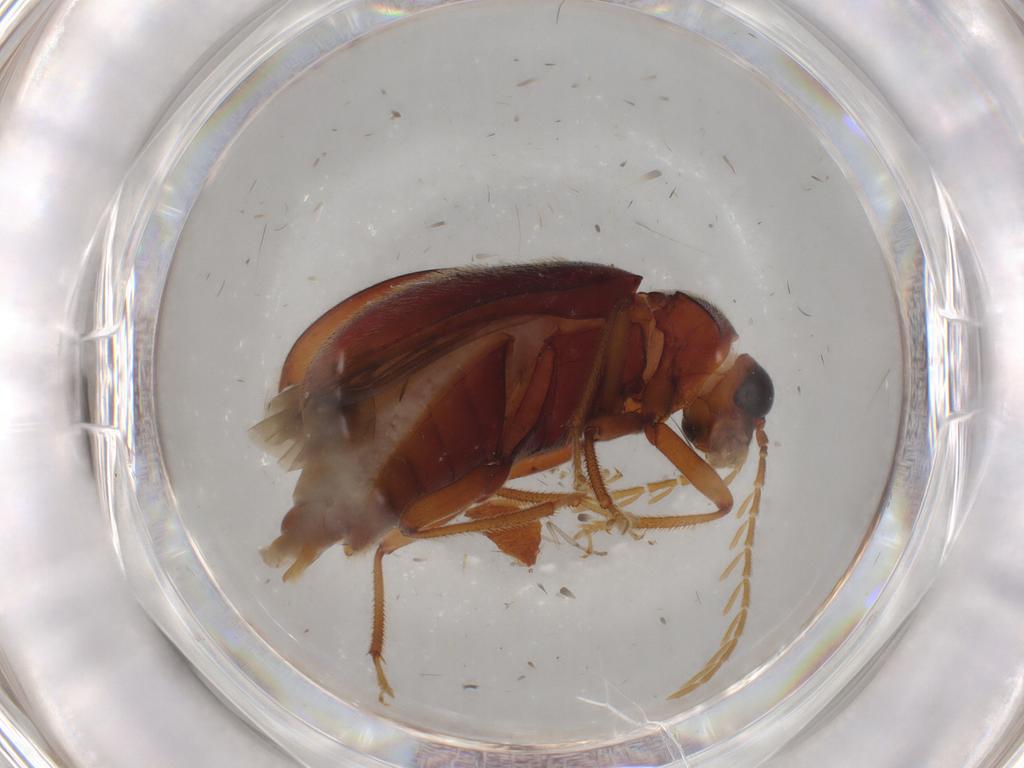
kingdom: Animalia
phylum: Arthropoda
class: Insecta
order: Coleoptera
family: Ptilodactylidae
